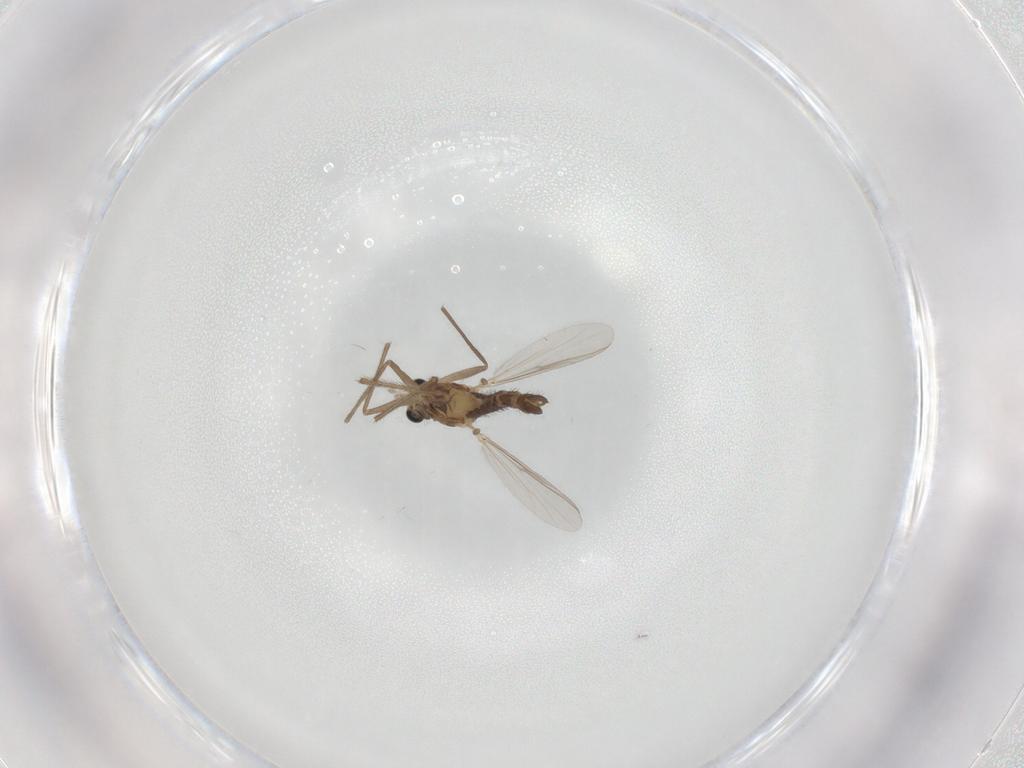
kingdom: Animalia
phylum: Arthropoda
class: Insecta
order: Diptera
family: Chironomidae
